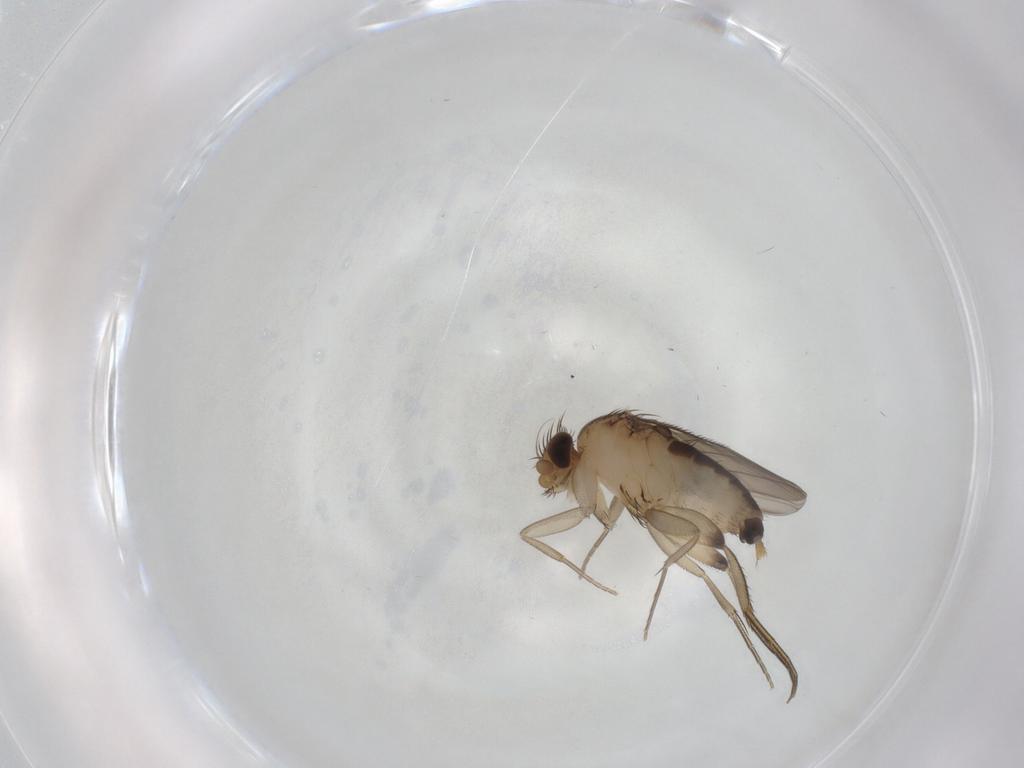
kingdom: Animalia
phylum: Arthropoda
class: Insecta
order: Diptera
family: Phoridae
